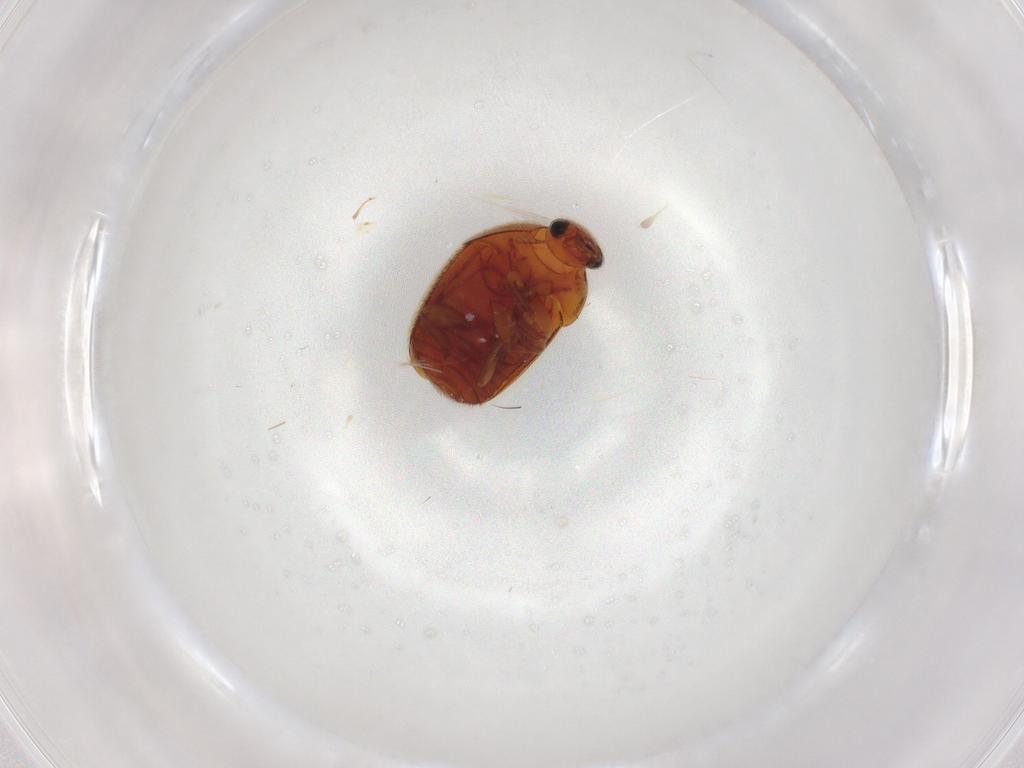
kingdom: Animalia
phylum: Arthropoda
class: Insecta
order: Coleoptera
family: Nitidulidae
